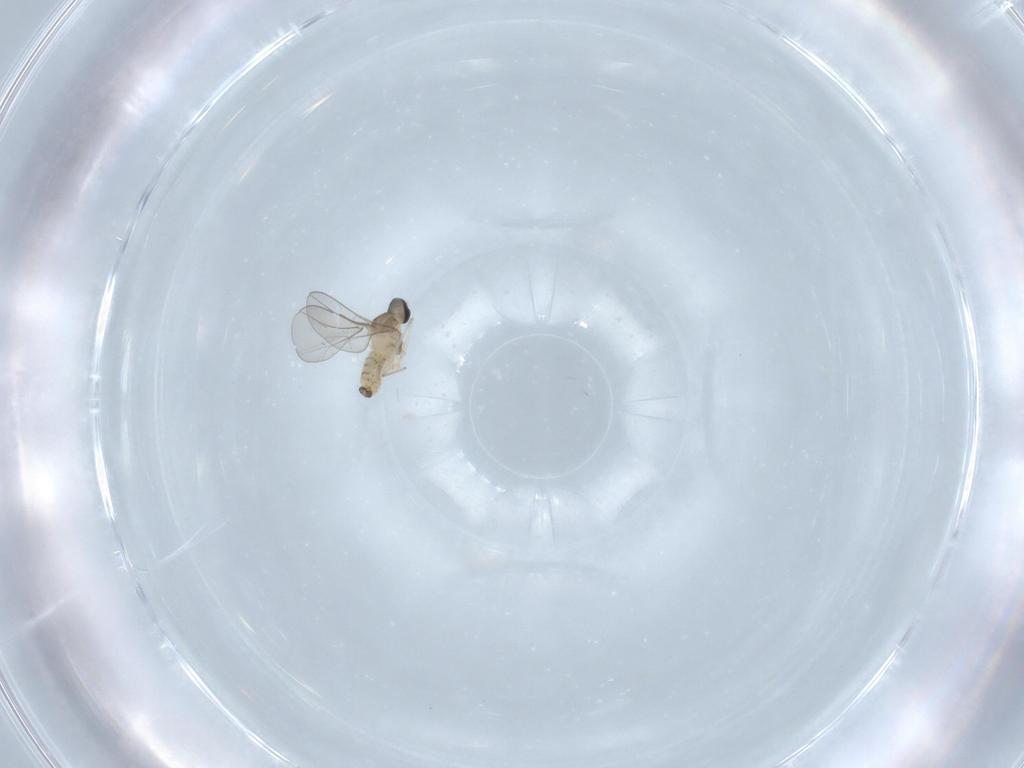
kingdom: Animalia
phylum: Arthropoda
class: Insecta
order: Diptera
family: Cecidomyiidae
